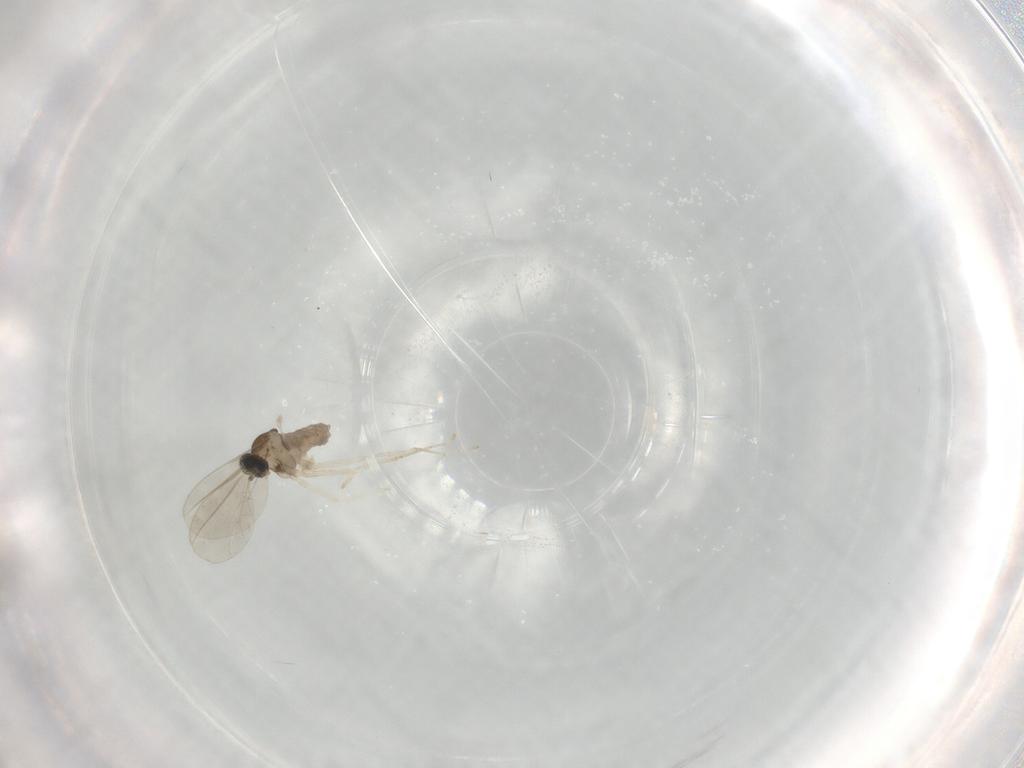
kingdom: Animalia
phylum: Arthropoda
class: Insecta
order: Diptera
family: Cecidomyiidae
